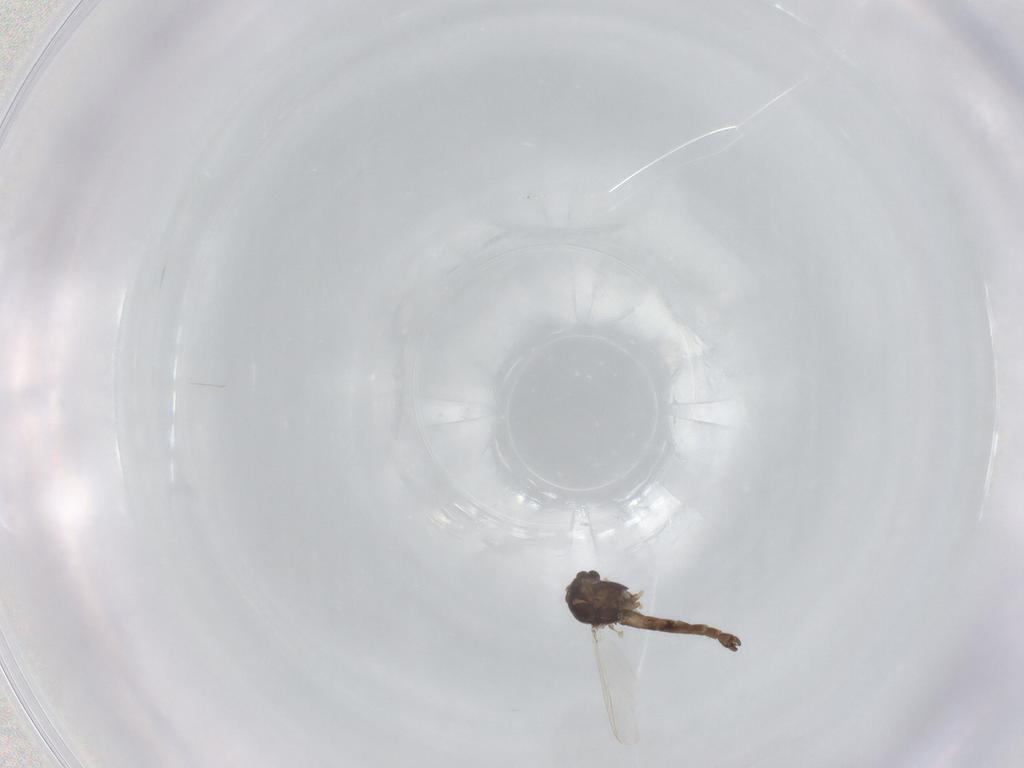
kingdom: Animalia
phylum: Arthropoda
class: Insecta
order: Diptera
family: Chironomidae
